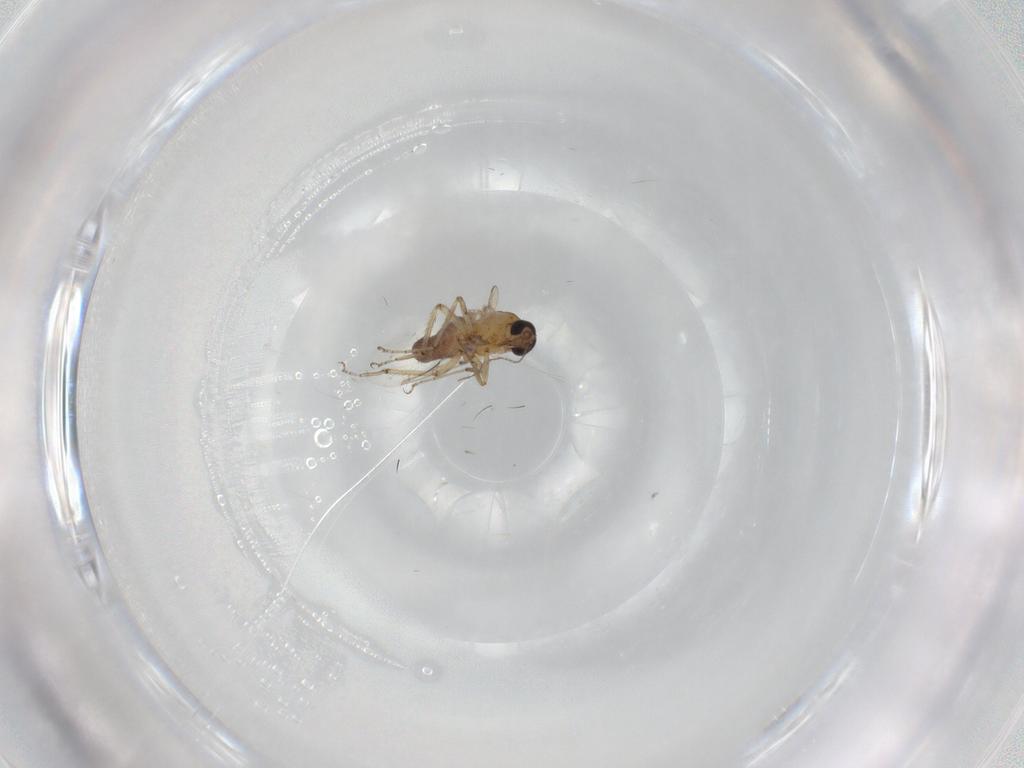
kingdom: Animalia
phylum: Arthropoda
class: Insecta
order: Diptera
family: Ceratopogonidae
